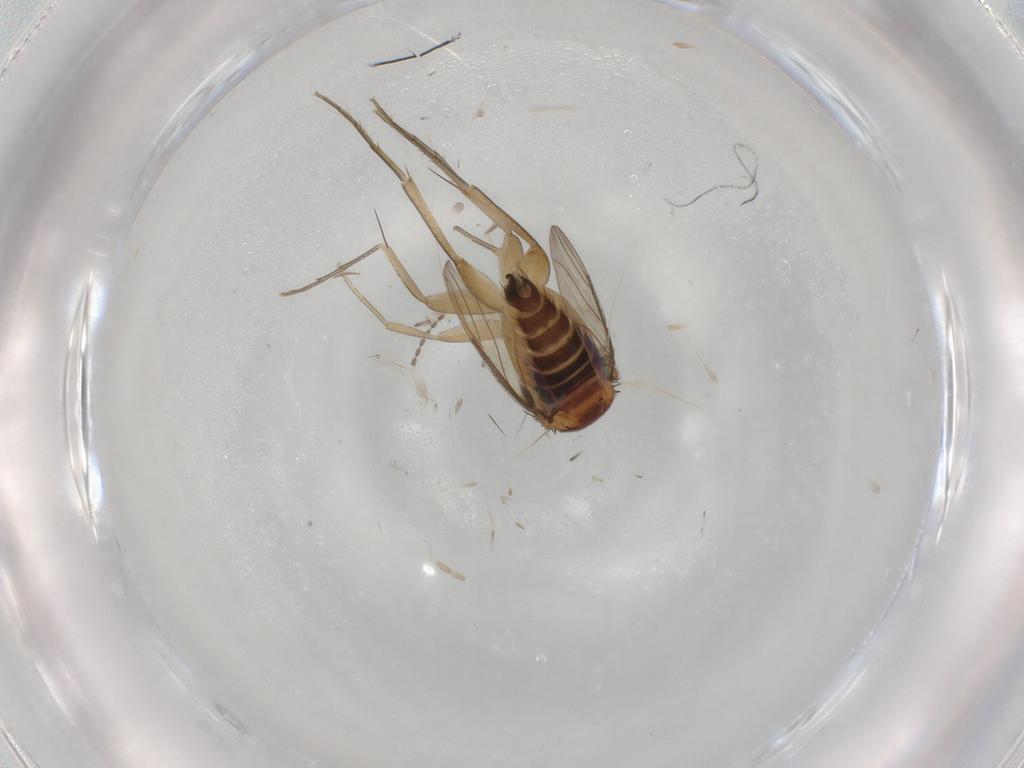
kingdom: Animalia
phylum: Arthropoda
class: Insecta
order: Diptera
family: Phoridae
